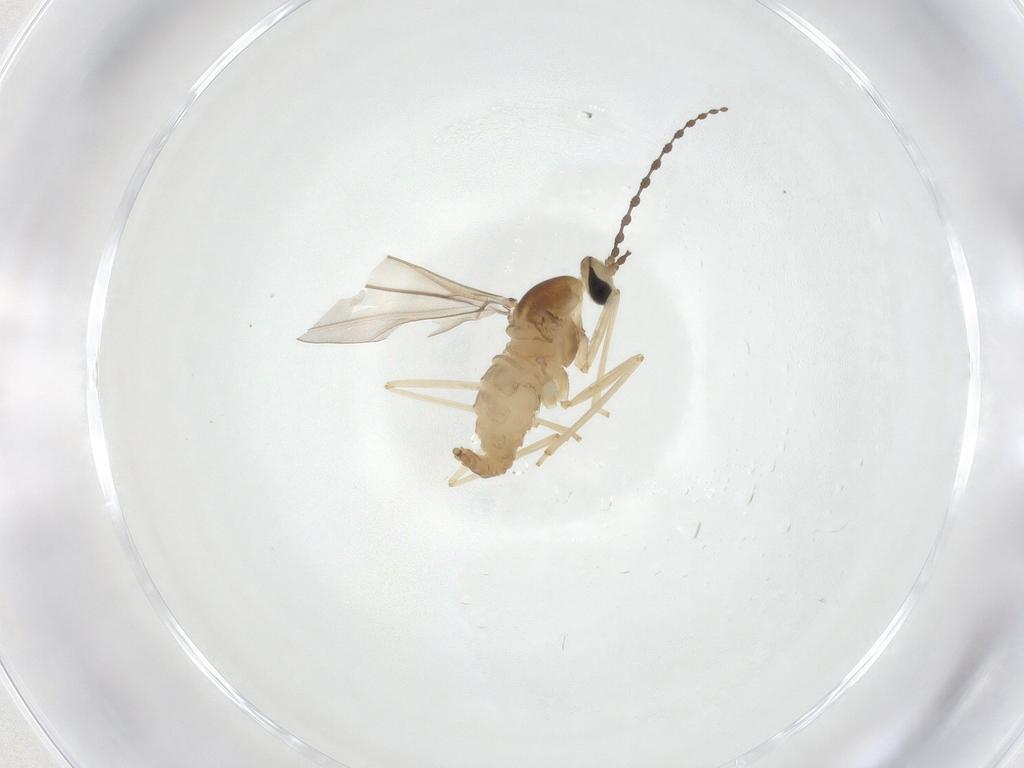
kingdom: Animalia
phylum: Arthropoda
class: Insecta
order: Diptera
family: Cecidomyiidae
